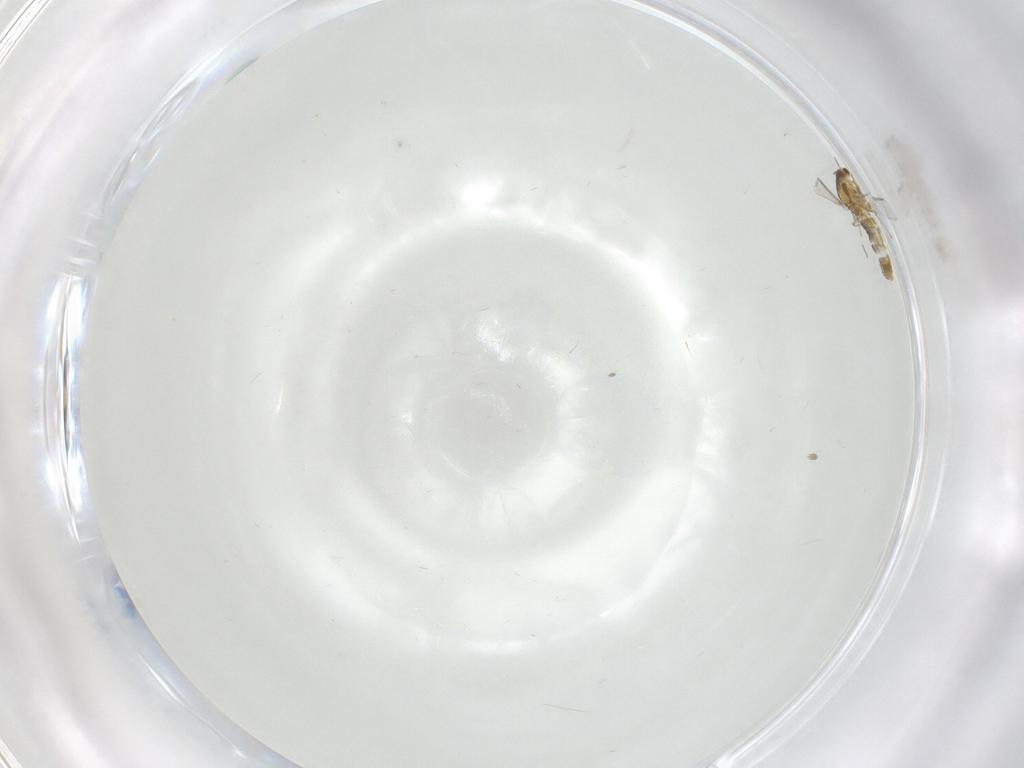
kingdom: Animalia
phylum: Arthropoda
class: Insecta
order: Diptera
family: Chironomidae
